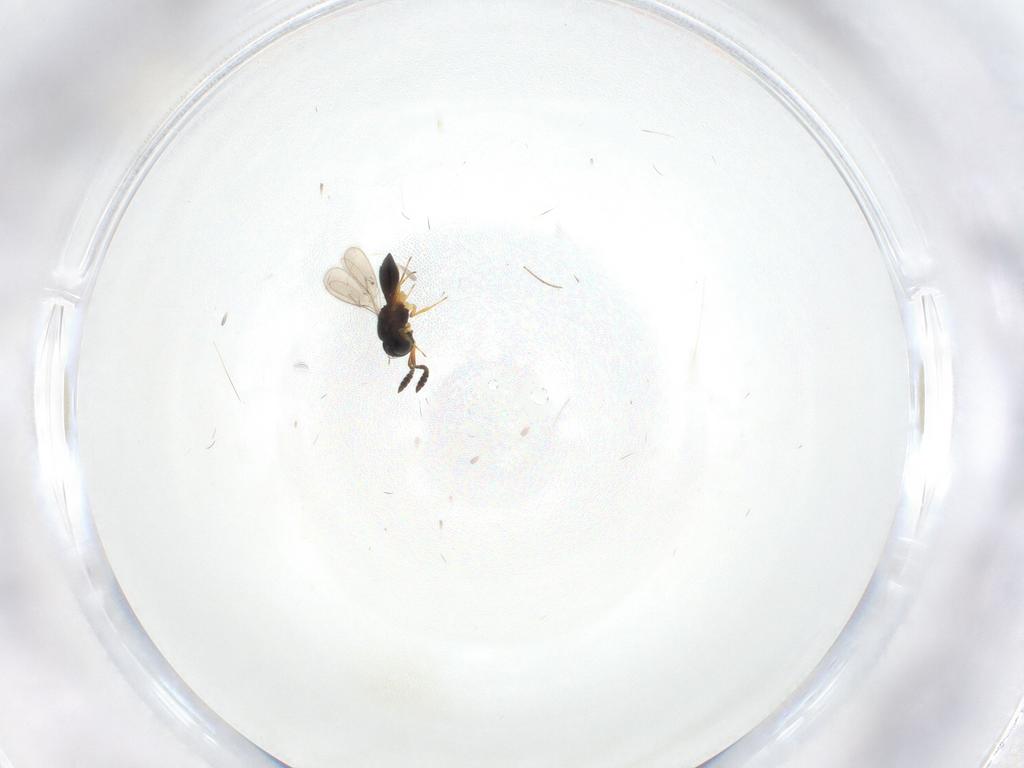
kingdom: Animalia
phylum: Arthropoda
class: Insecta
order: Hymenoptera
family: Scelionidae
